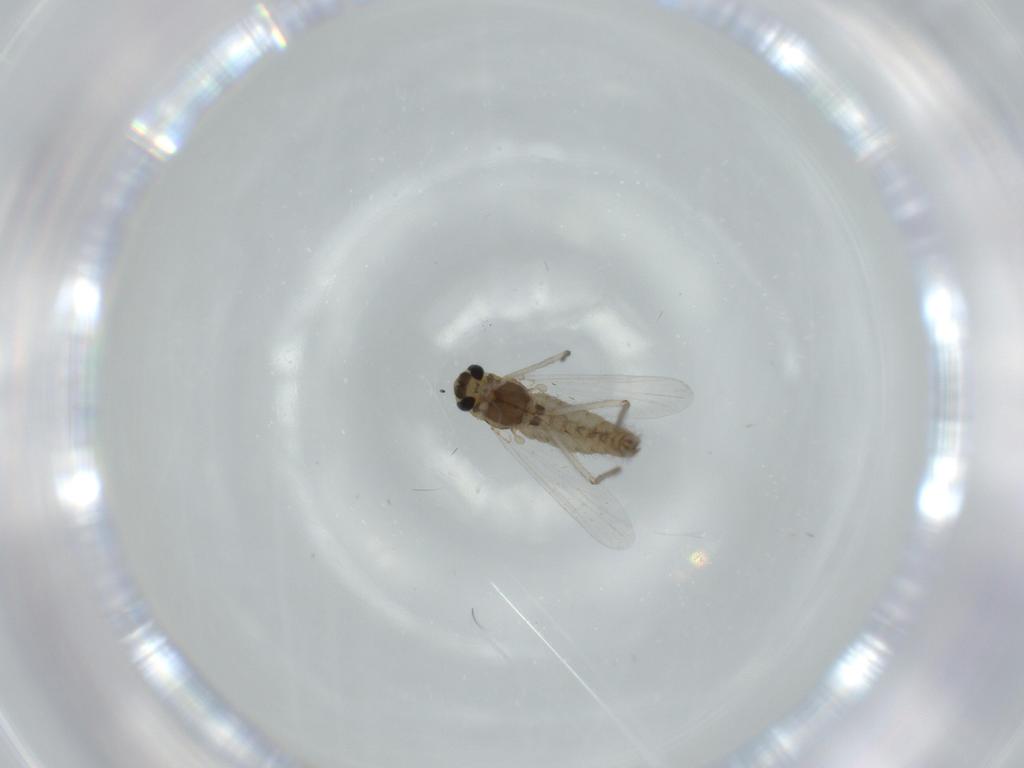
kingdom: Animalia
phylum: Arthropoda
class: Insecta
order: Diptera
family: Chironomidae
